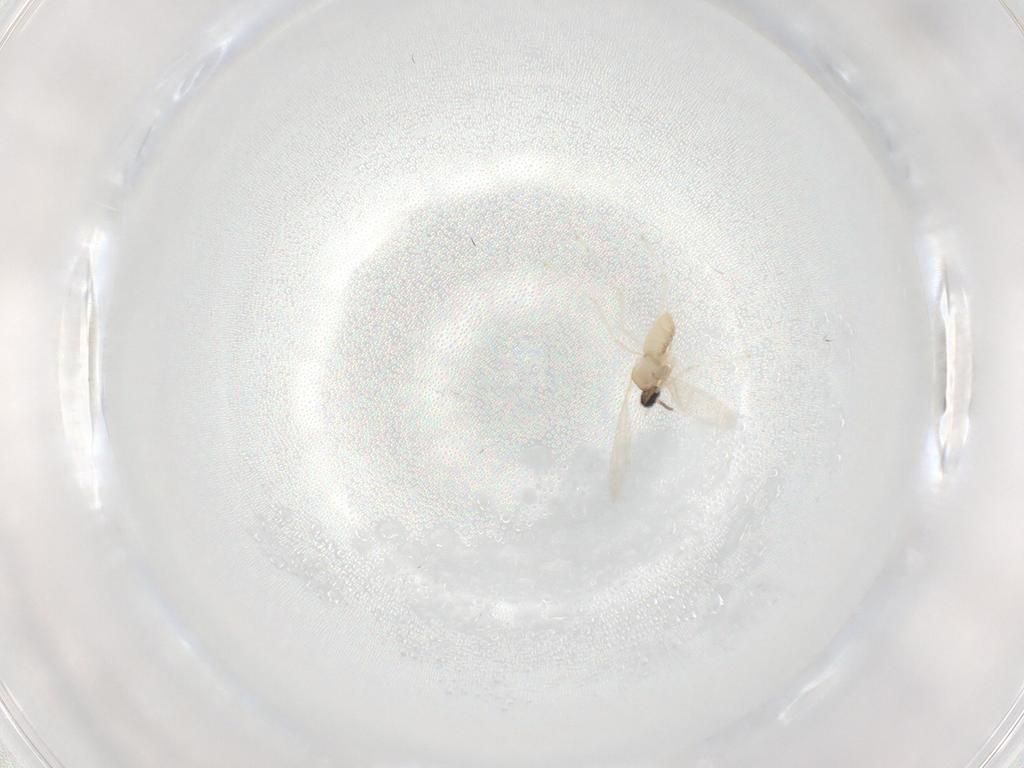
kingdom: Animalia
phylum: Arthropoda
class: Insecta
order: Diptera
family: Cecidomyiidae
